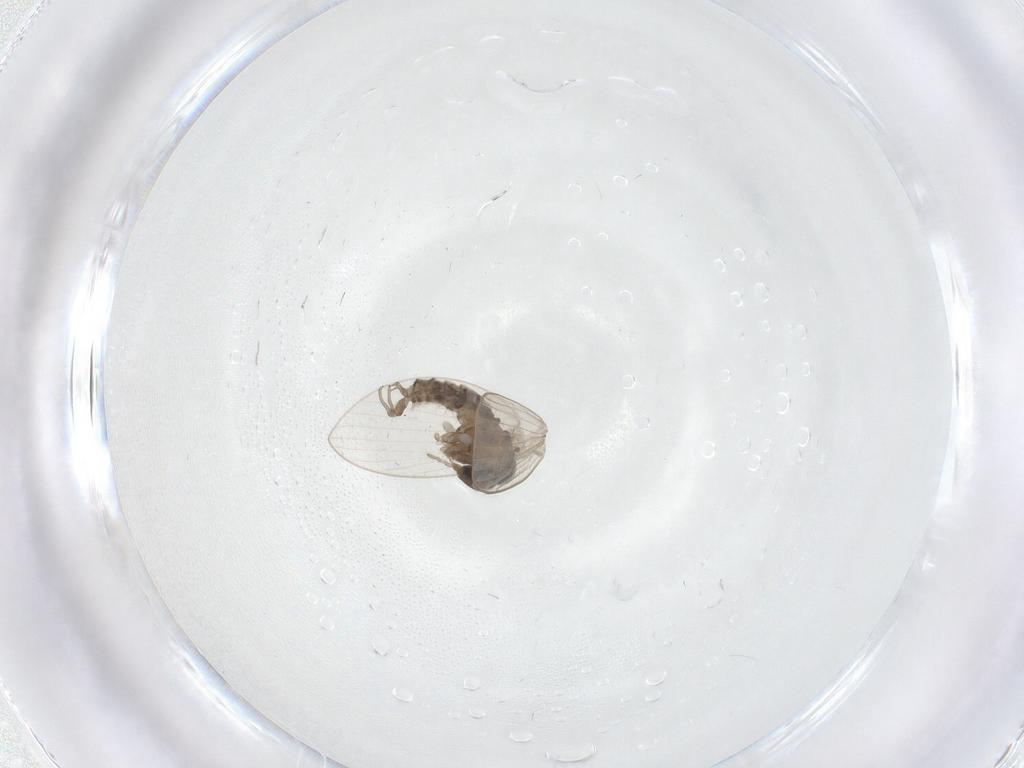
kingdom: Animalia
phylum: Arthropoda
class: Insecta
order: Diptera
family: Psychodidae
